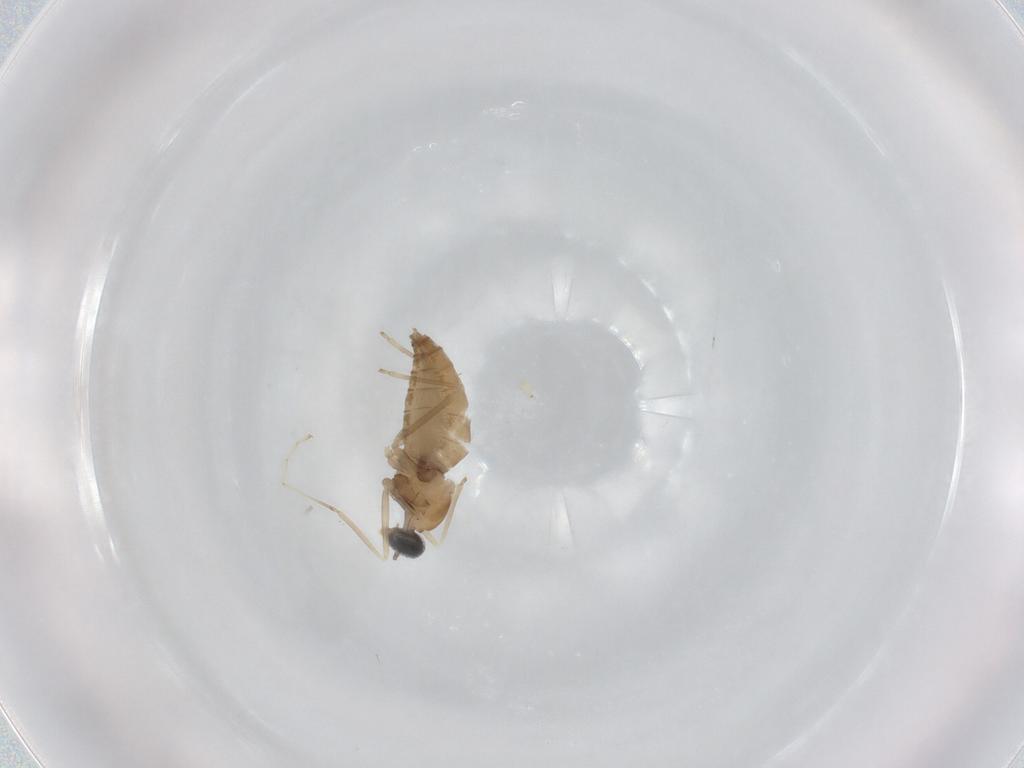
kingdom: Animalia
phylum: Arthropoda
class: Insecta
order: Diptera
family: Cecidomyiidae
